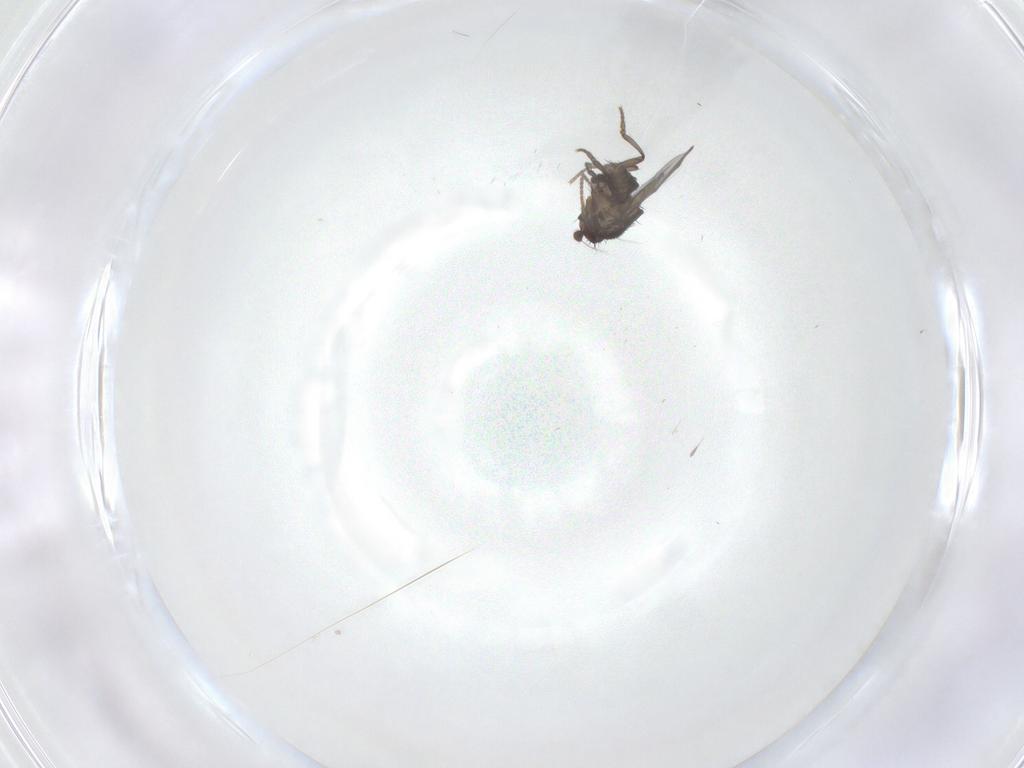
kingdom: Animalia
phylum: Arthropoda
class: Insecta
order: Diptera
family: Sphaeroceridae
